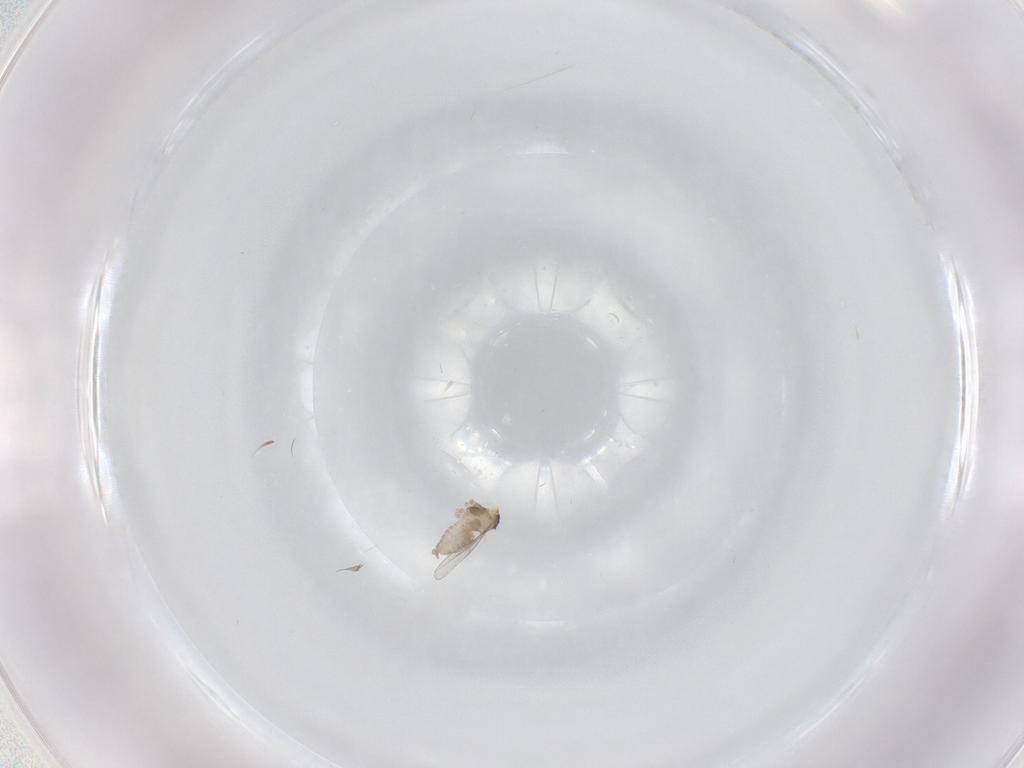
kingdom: Animalia
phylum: Arthropoda
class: Insecta
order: Diptera
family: Cecidomyiidae
